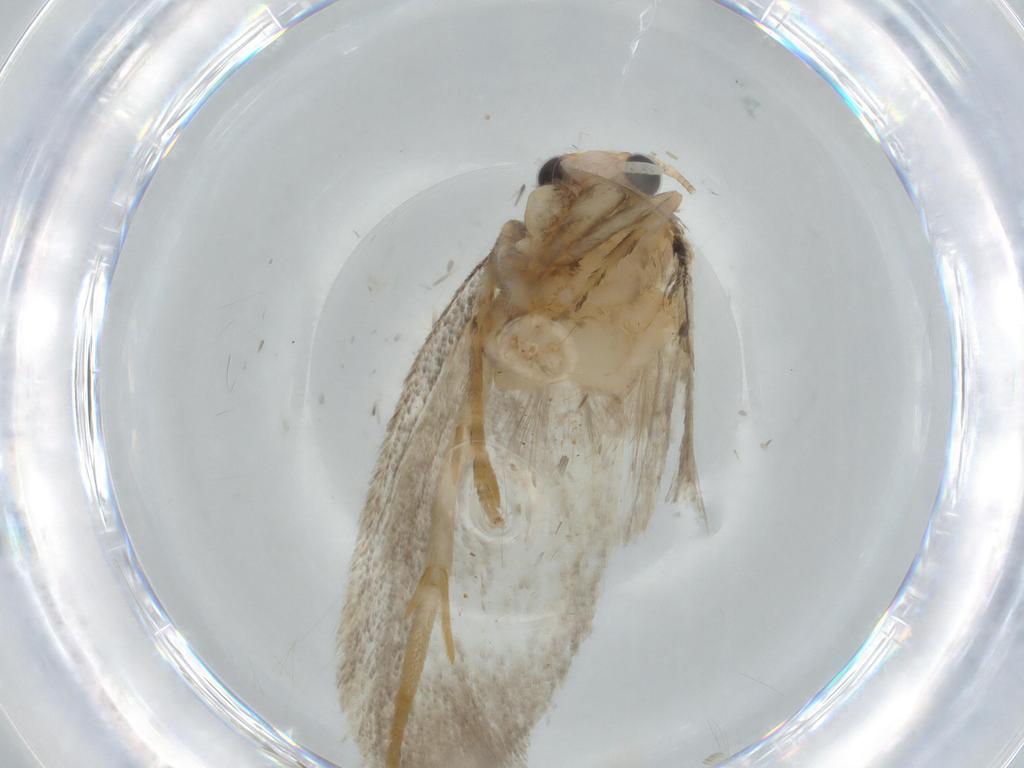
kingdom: Animalia
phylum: Arthropoda
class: Insecta
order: Lepidoptera
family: Tineidae
